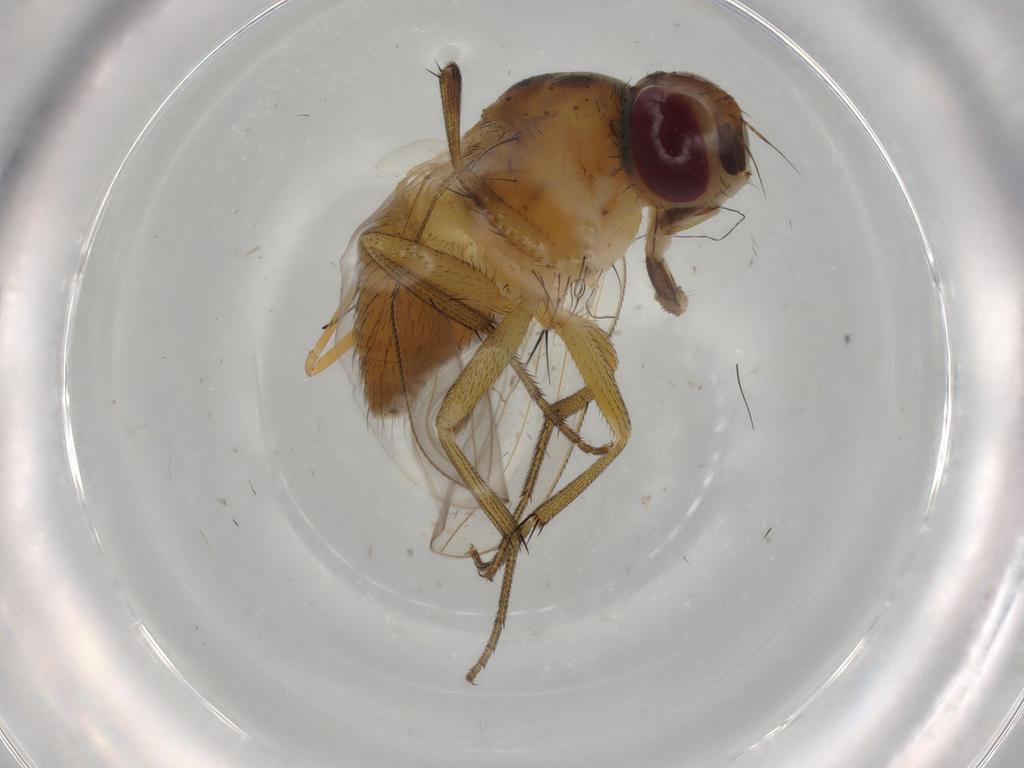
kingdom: Animalia
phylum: Arthropoda
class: Insecta
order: Diptera
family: Muscidae
